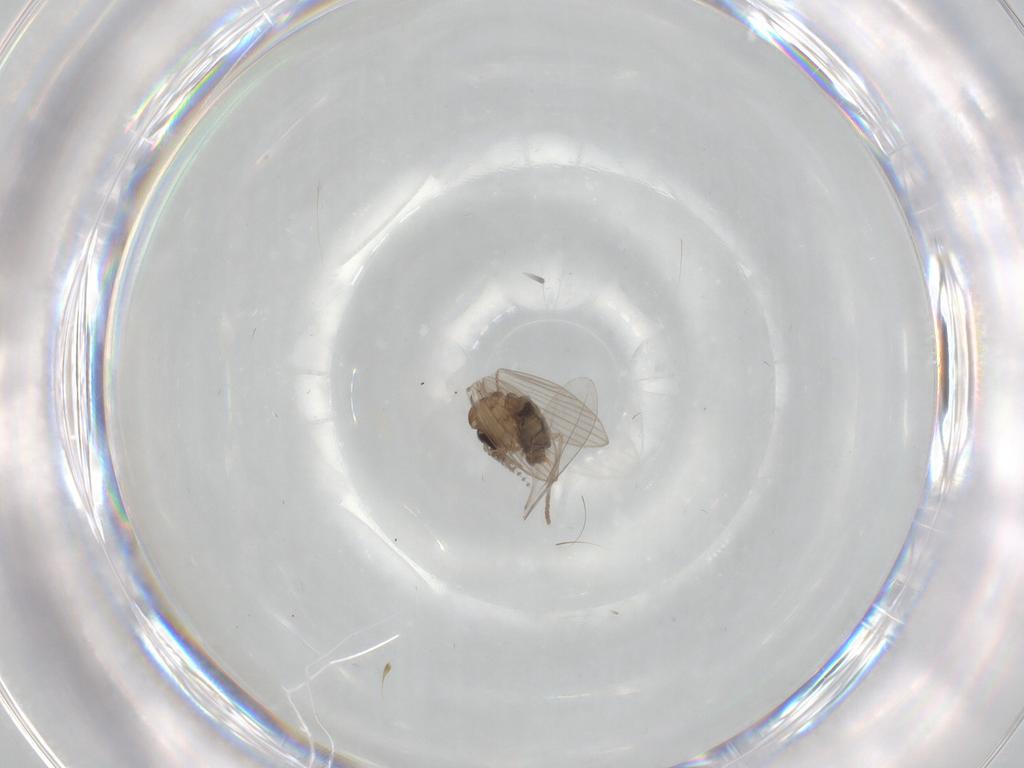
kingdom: Animalia
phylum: Arthropoda
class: Insecta
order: Diptera
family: Psychodidae
